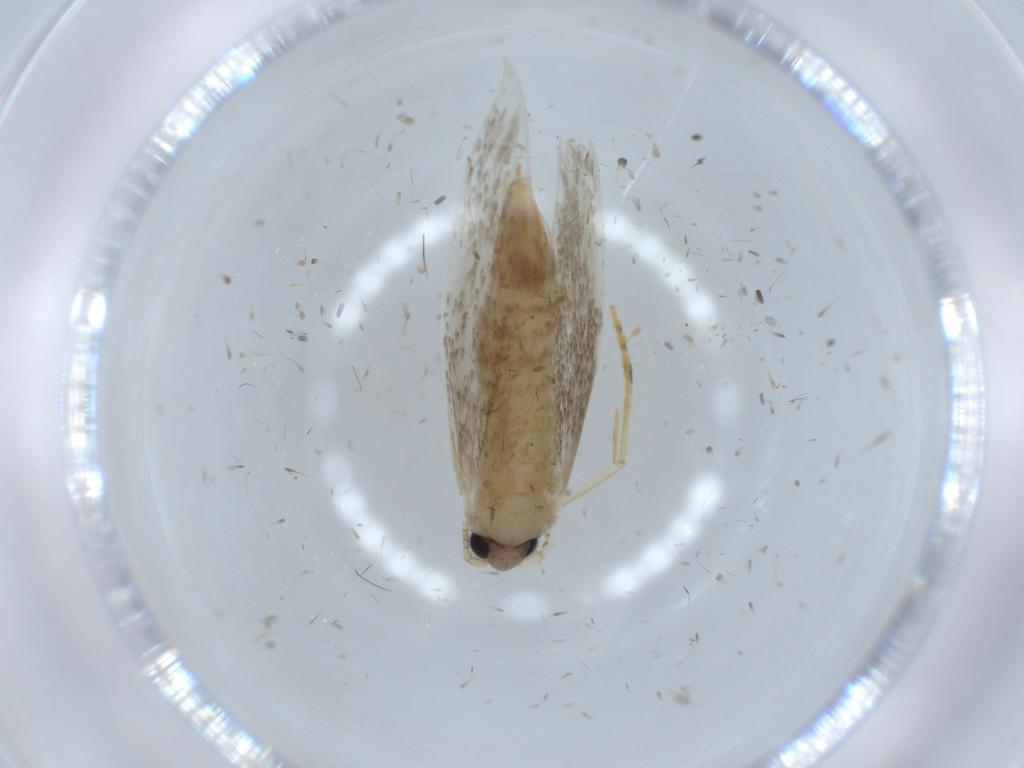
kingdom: Animalia
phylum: Arthropoda
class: Insecta
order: Lepidoptera
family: Tineidae
